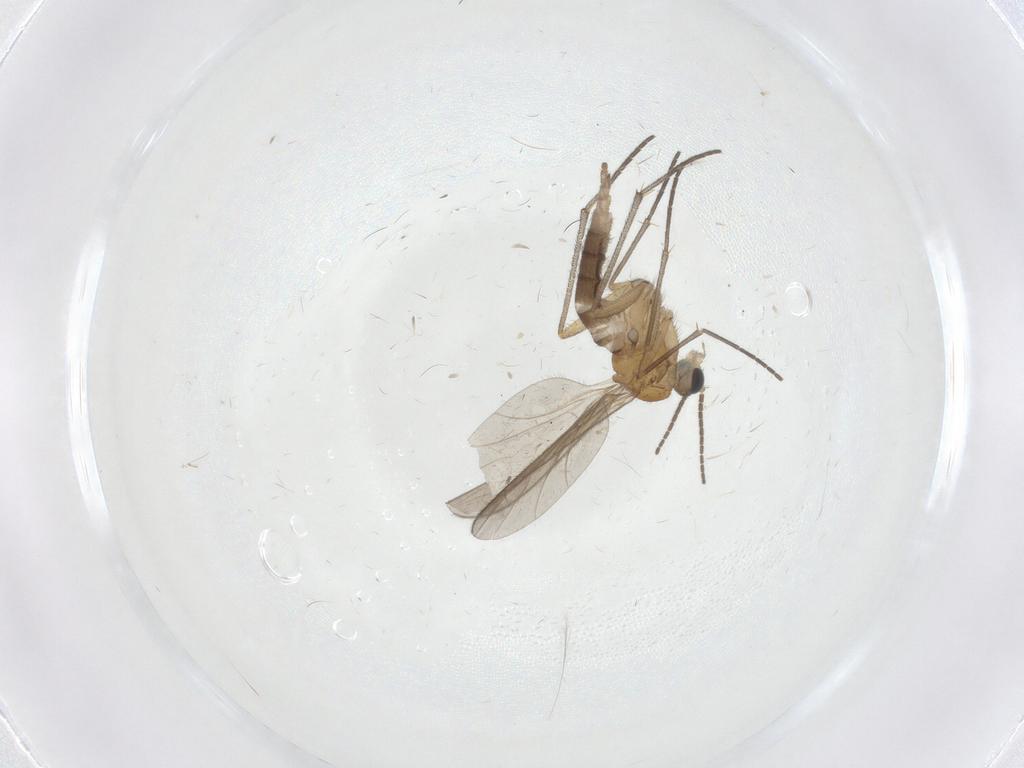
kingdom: Animalia
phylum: Arthropoda
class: Insecta
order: Diptera
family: Sciaridae
